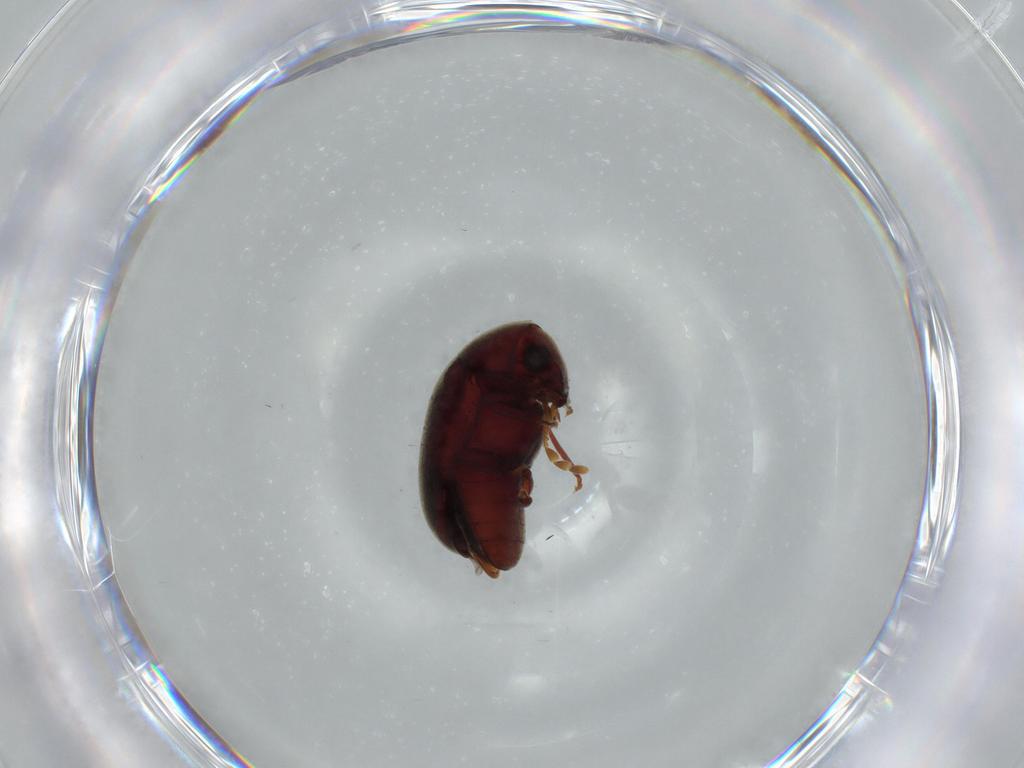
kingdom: Animalia
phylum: Arthropoda
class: Insecta
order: Coleoptera
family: Ptinidae
